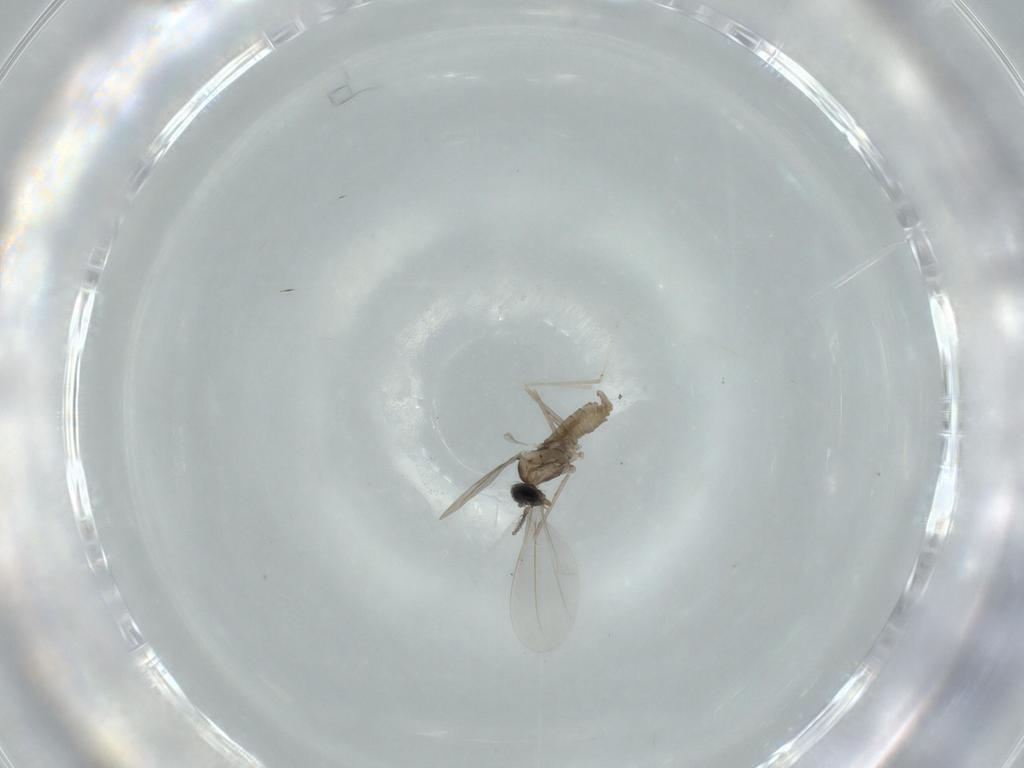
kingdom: Animalia
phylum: Arthropoda
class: Insecta
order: Diptera
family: Cecidomyiidae
